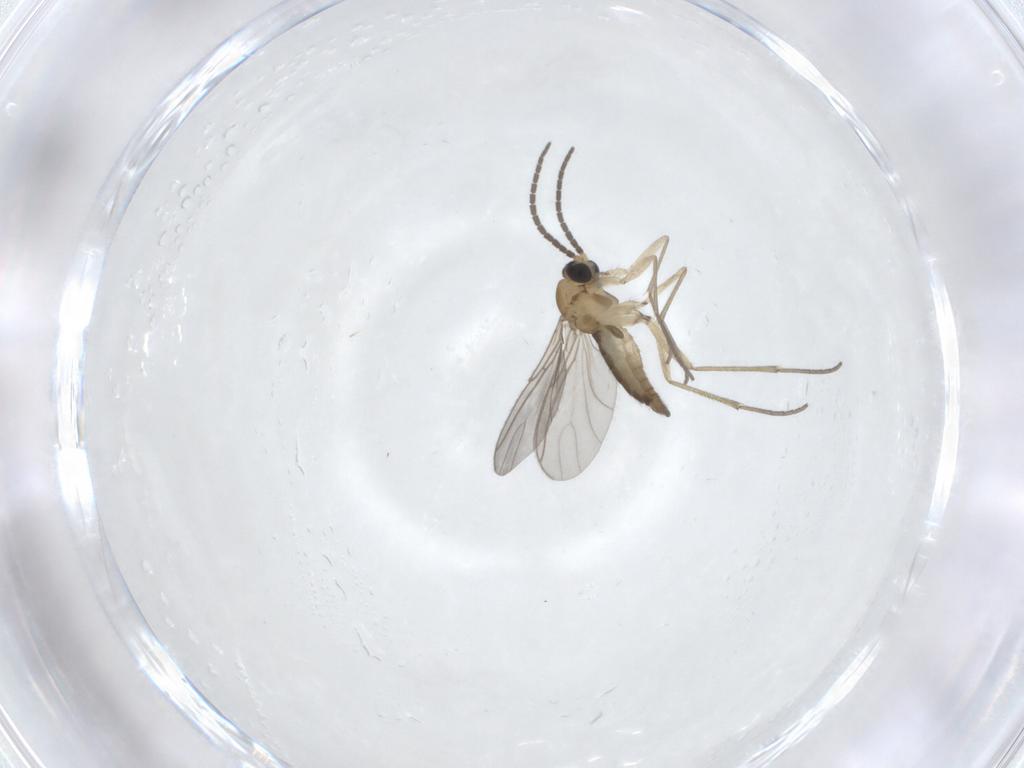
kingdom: Animalia
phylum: Arthropoda
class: Insecta
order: Diptera
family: Sciaridae
